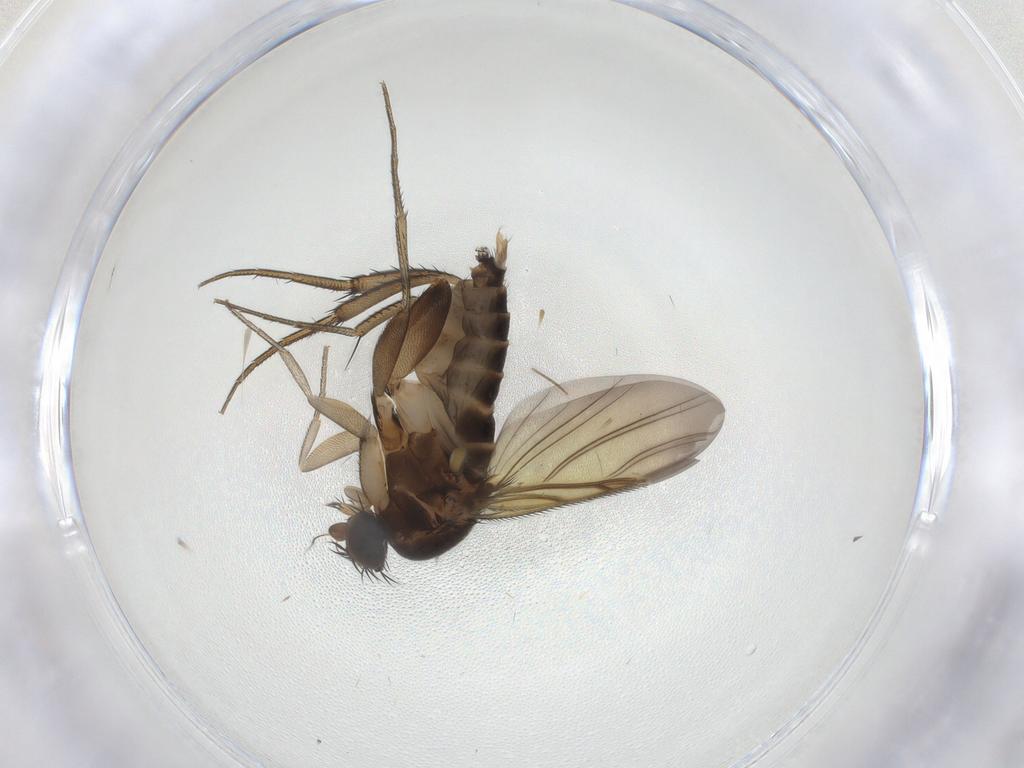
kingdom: Animalia
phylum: Arthropoda
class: Insecta
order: Diptera
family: Phoridae
